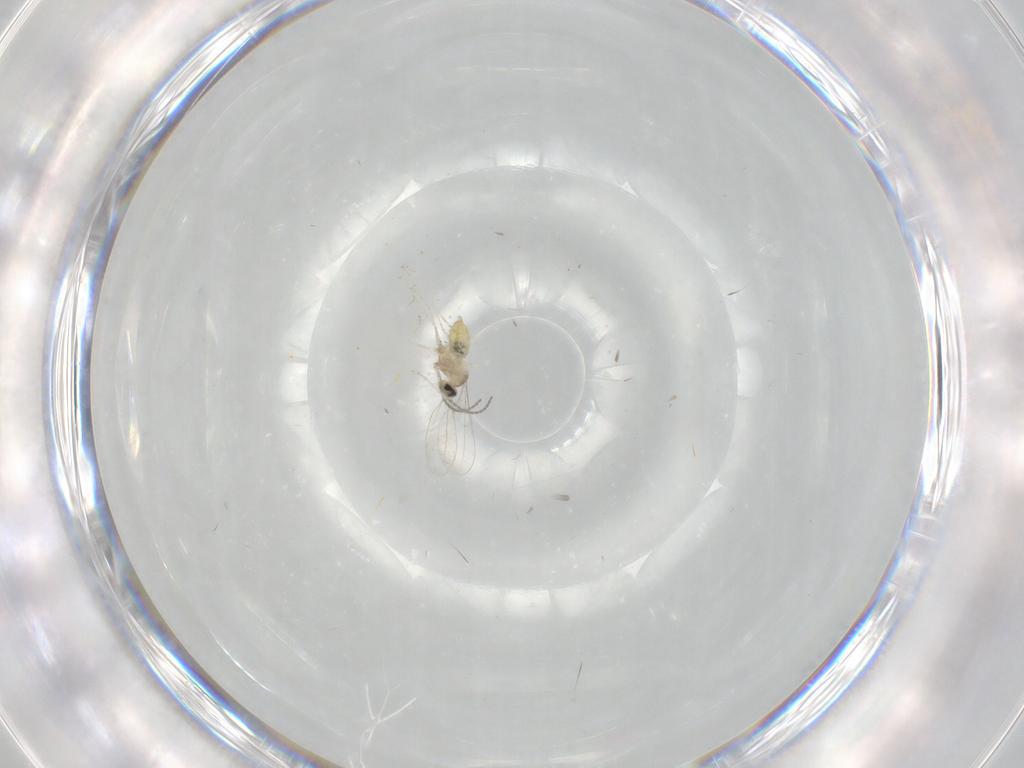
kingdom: Animalia
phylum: Arthropoda
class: Insecta
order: Diptera
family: Cecidomyiidae
